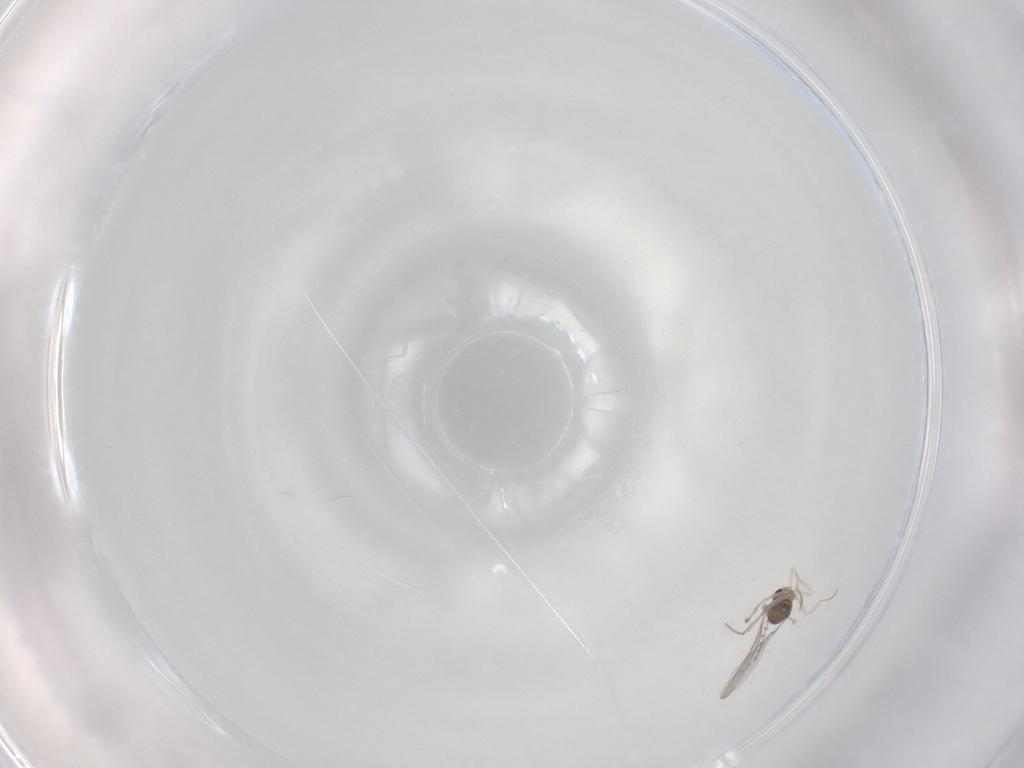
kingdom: Animalia
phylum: Arthropoda
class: Insecta
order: Diptera
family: Cecidomyiidae
